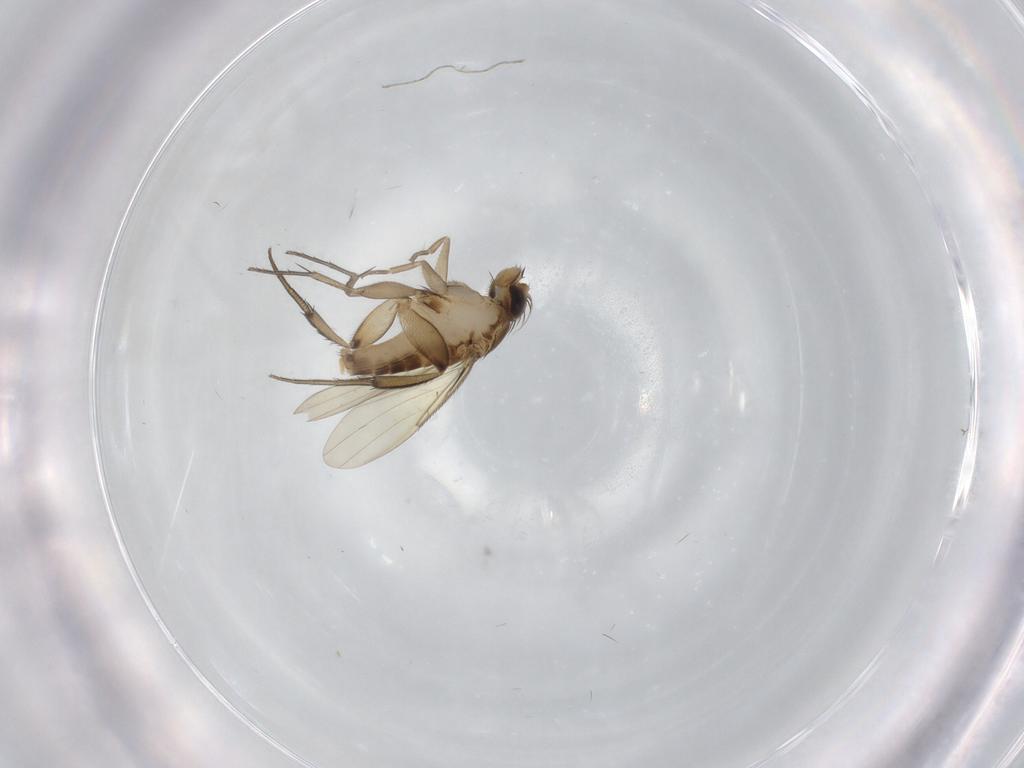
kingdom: Animalia
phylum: Arthropoda
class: Insecta
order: Diptera
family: Phoridae
